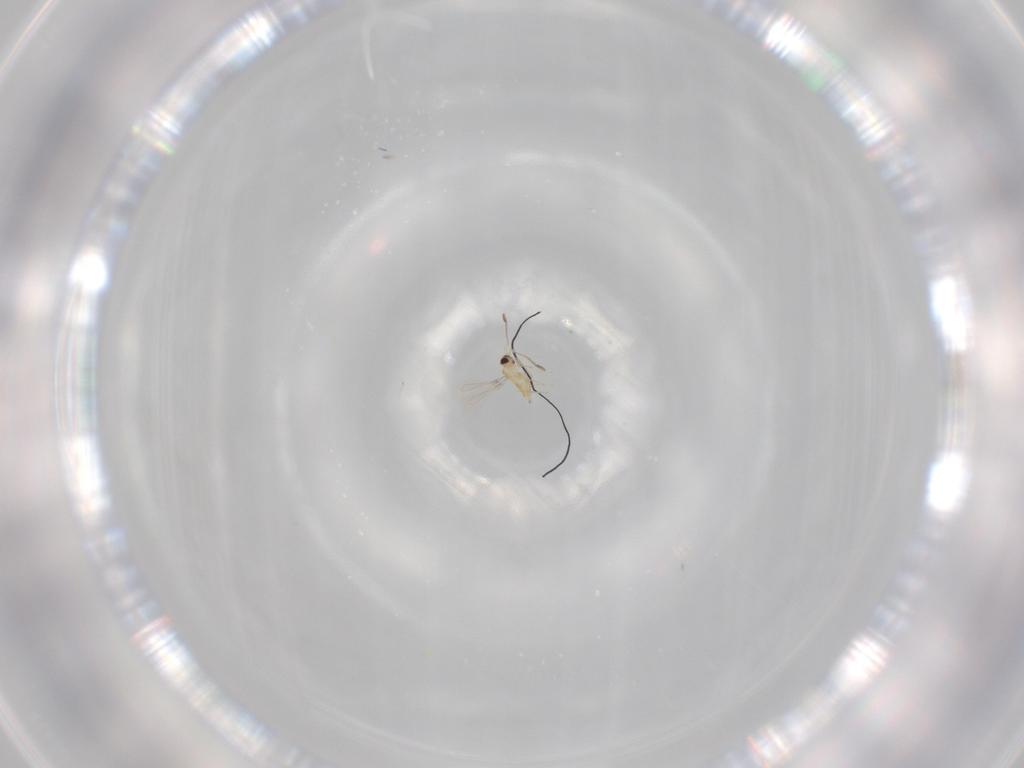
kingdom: Animalia
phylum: Arthropoda
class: Insecta
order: Hymenoptera
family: Mymaridae
